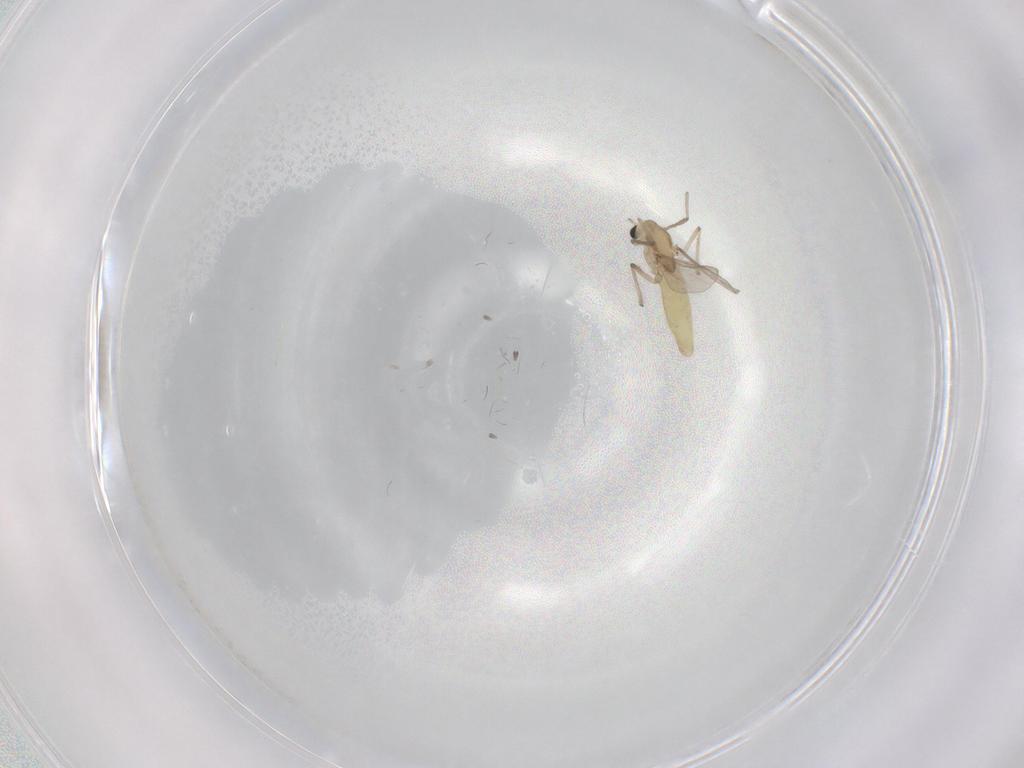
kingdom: Animalia
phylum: Arthropoda
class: Insecta
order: Diptera
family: Chironomidae
